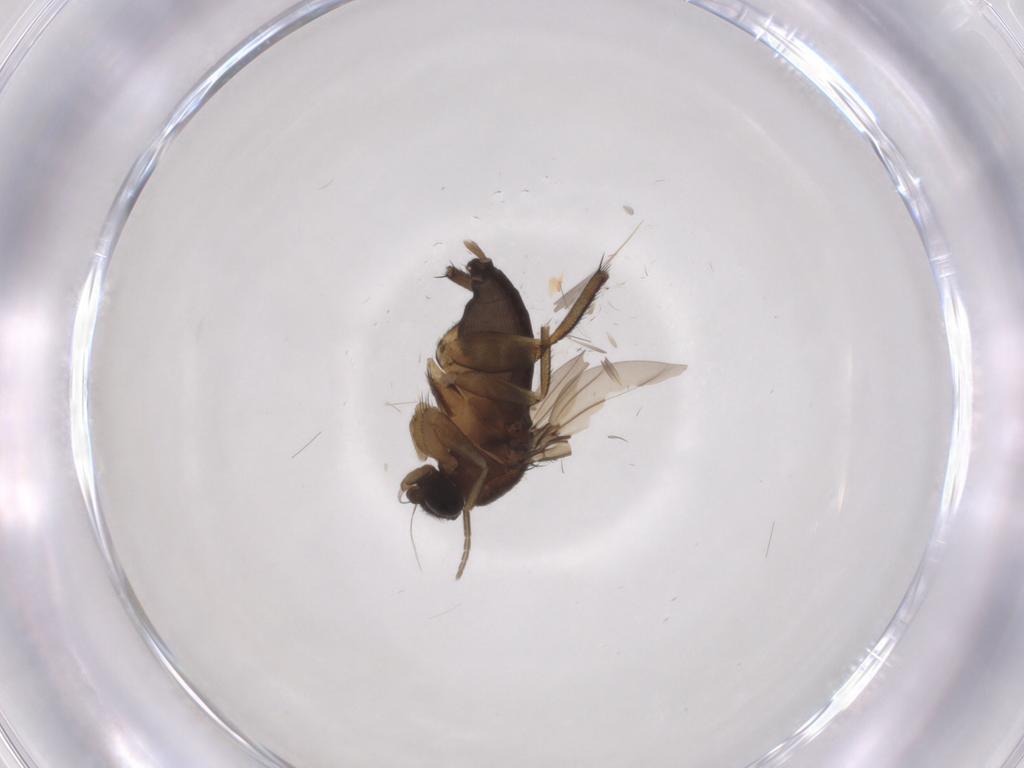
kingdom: Animalia
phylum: Arthropoda
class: Insecta
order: Diptera
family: Phoridae
